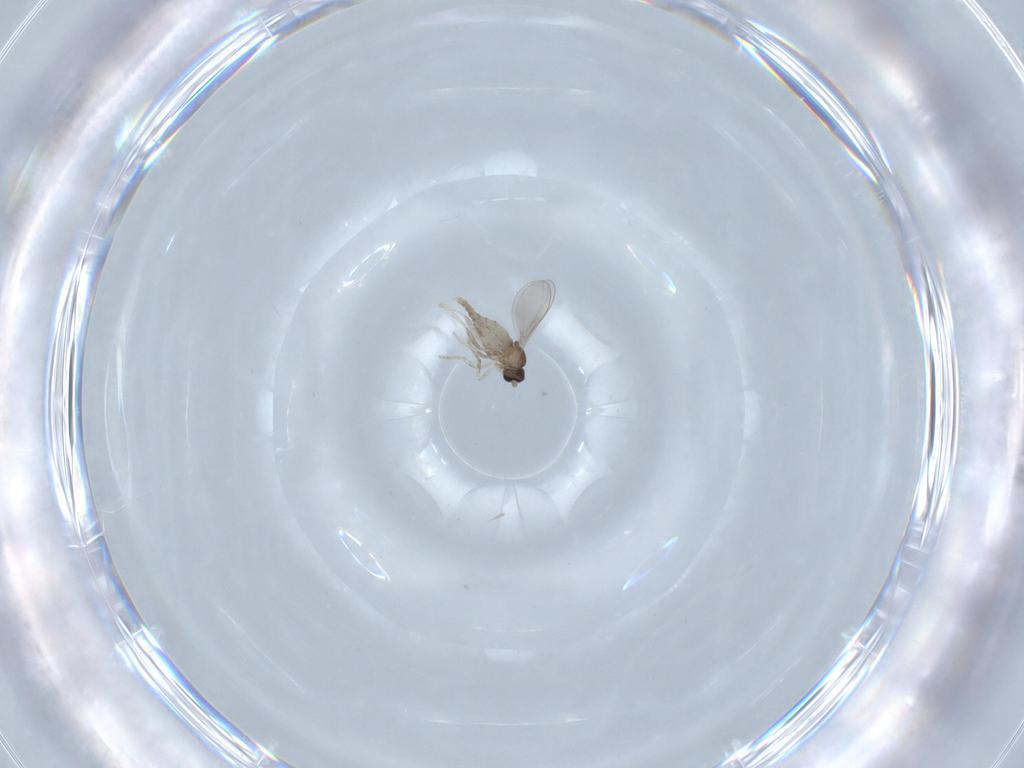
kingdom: Animalia
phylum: Arthropoda
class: Insecta
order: Diptera
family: Cecidomyiidae
